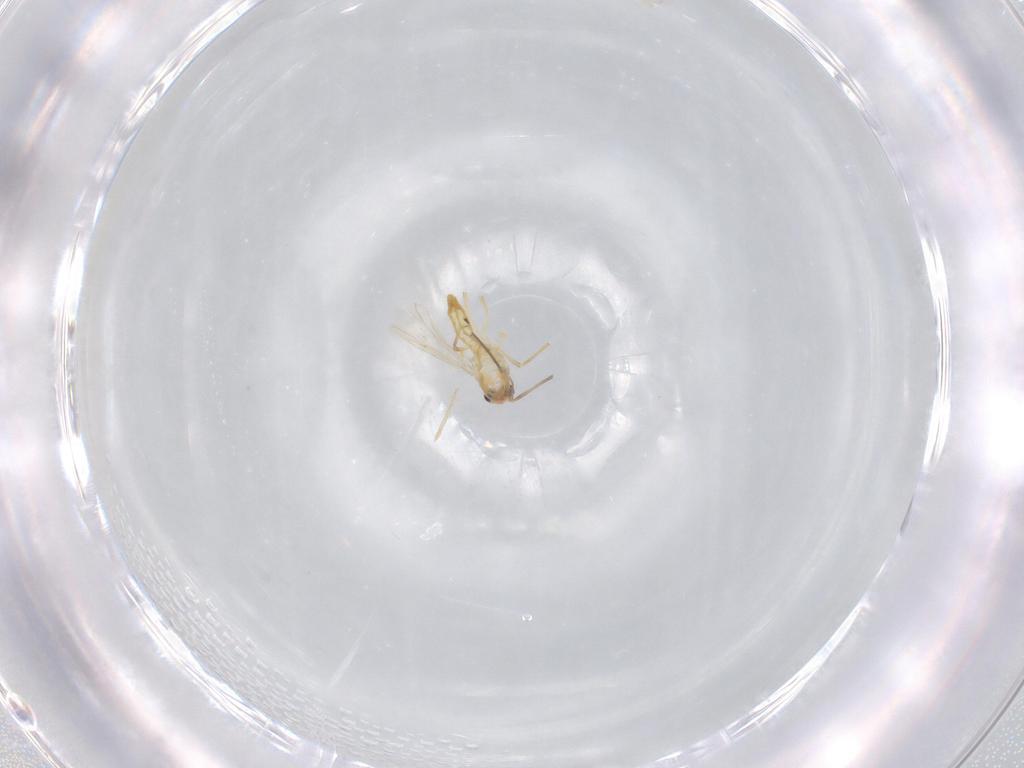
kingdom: Animalia
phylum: Arthropoda
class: Insecta
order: Diptera
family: Chironomidae
